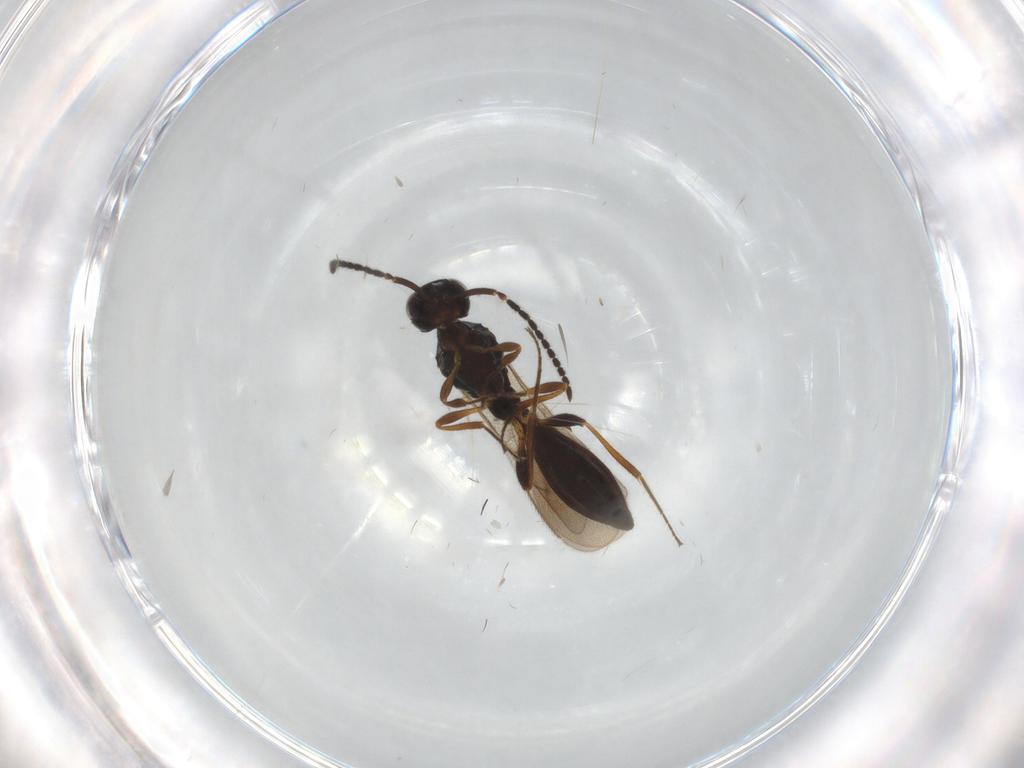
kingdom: Animalia
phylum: Arthropoda
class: Insecta
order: Hymenoptera
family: Scelionidae
